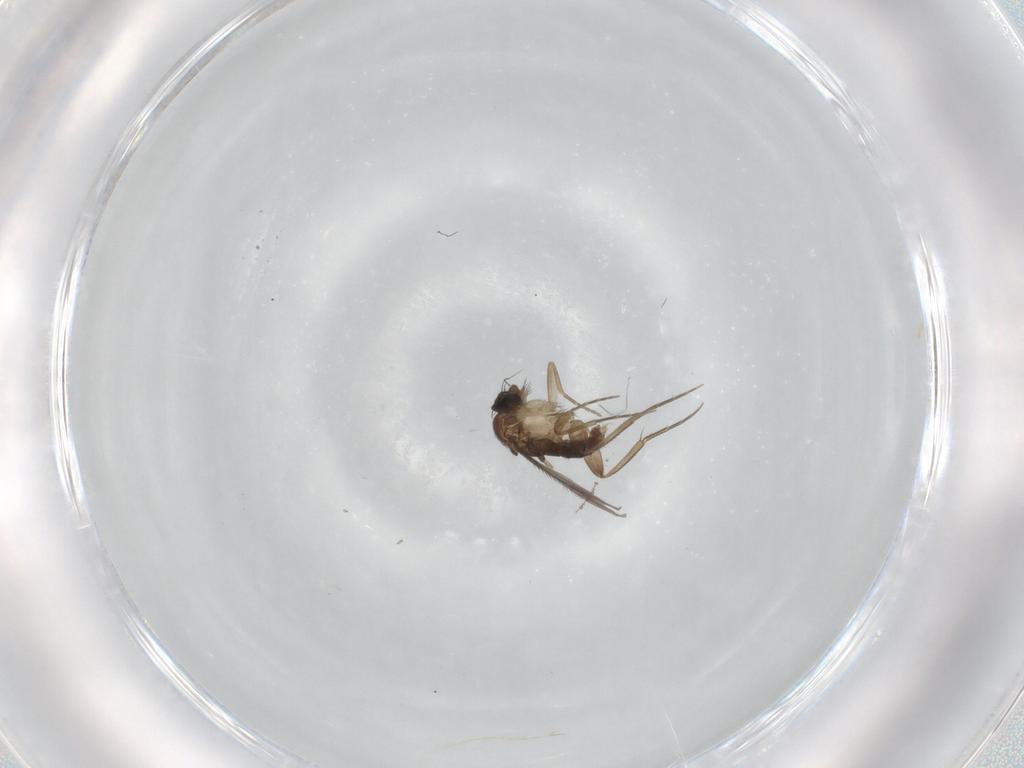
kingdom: Animalia
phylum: Arthropoda
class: Insecta
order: Diptera
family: Phoridae
